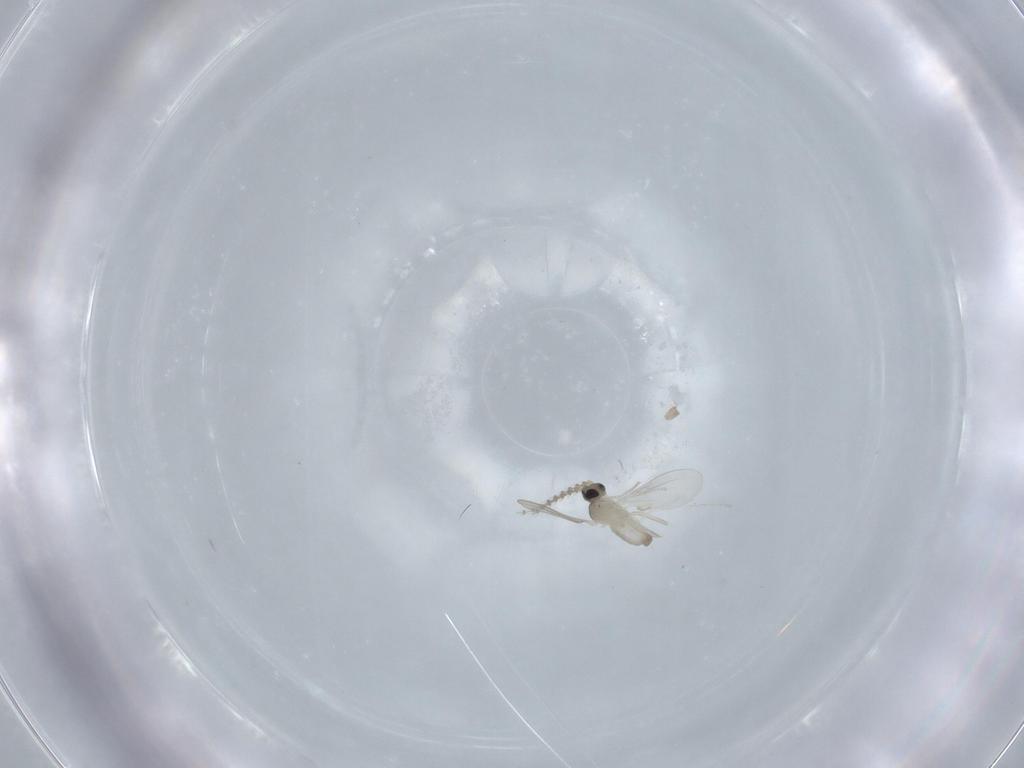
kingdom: Animalia
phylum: Arthropoda
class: Insecta
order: Diptera
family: Cecidomyiidae
